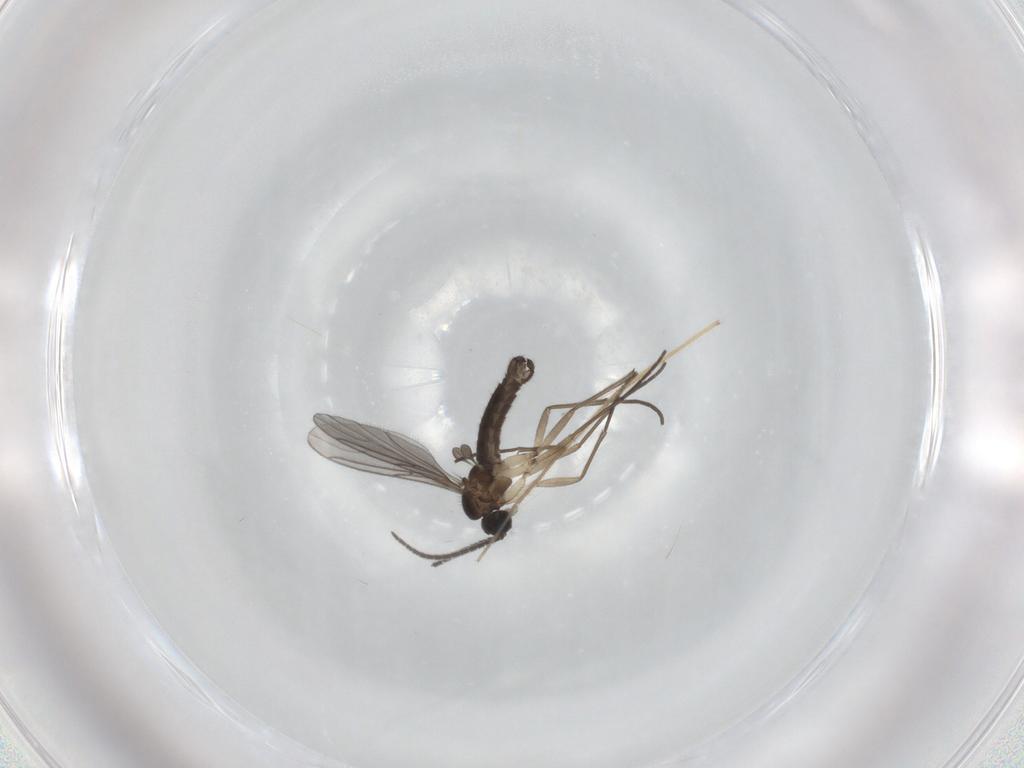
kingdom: Animalia
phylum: Arthropoda
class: Insecta
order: Diptera
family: Sciaridae
